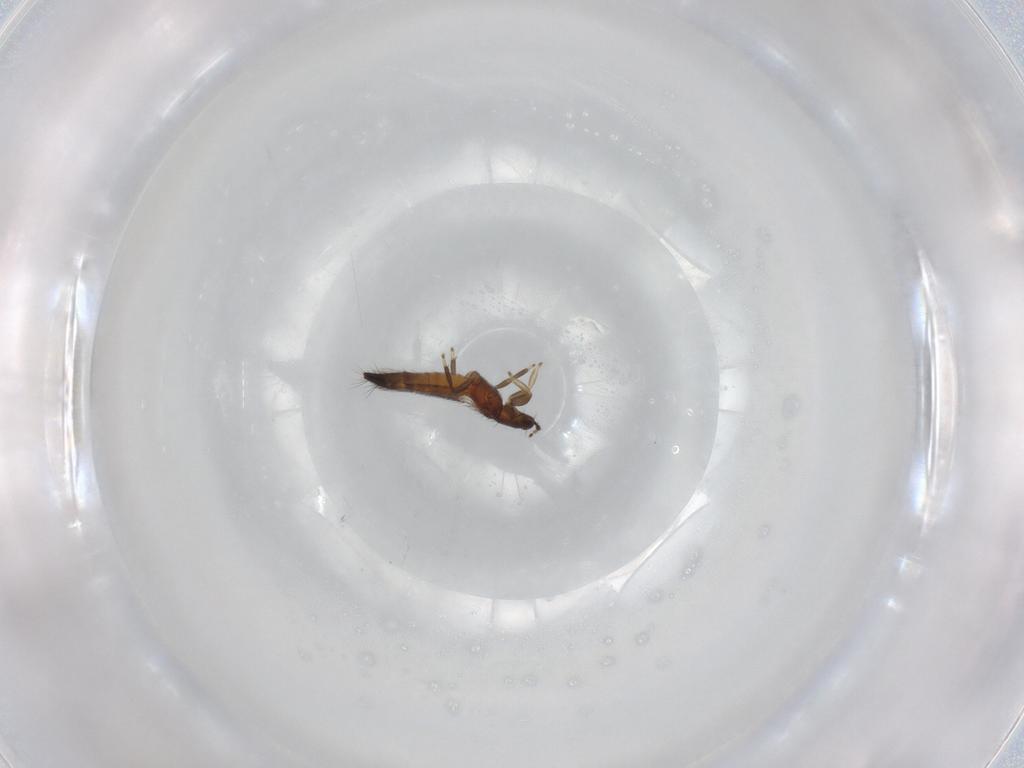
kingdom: Animalia
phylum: Arthropoda
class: Insecta
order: Thysanoptera
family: Thripidae
